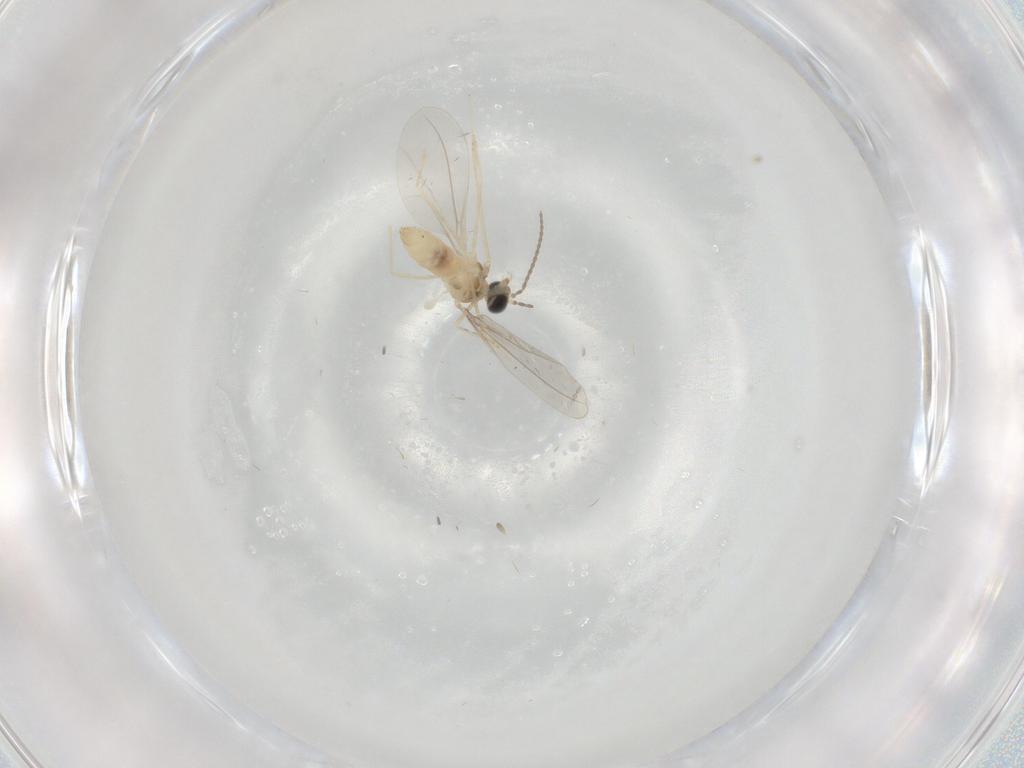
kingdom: Animalia
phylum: Arthropoda
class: Insecta
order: Diptera
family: Cecidomyiidae
